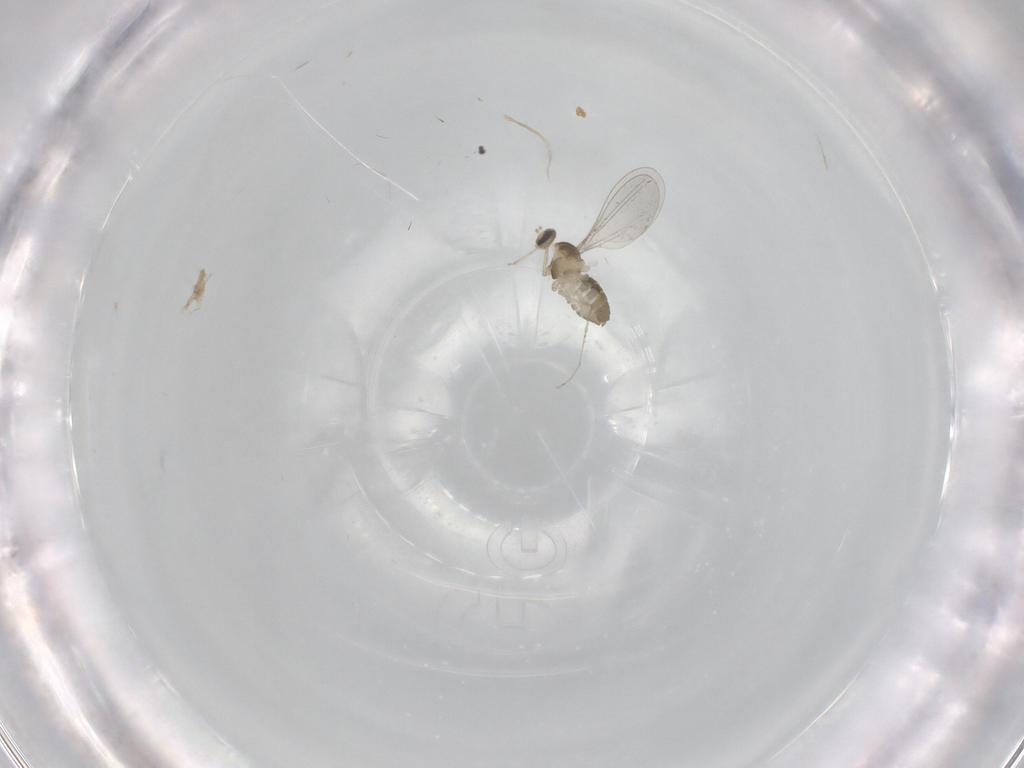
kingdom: Animalia
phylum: Arthropoda
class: Insecta
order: Diptera
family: Cecidomyiidae
